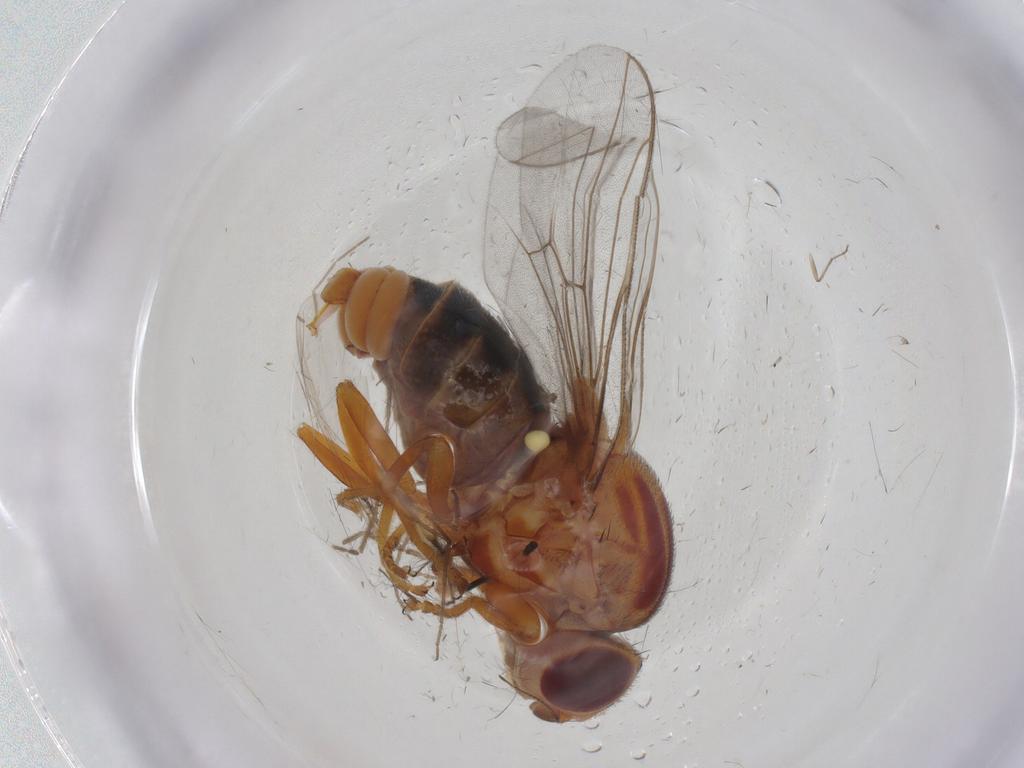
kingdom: Animalia
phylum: Arthropoda
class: Insecta
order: Diptera
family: Chloropidae
